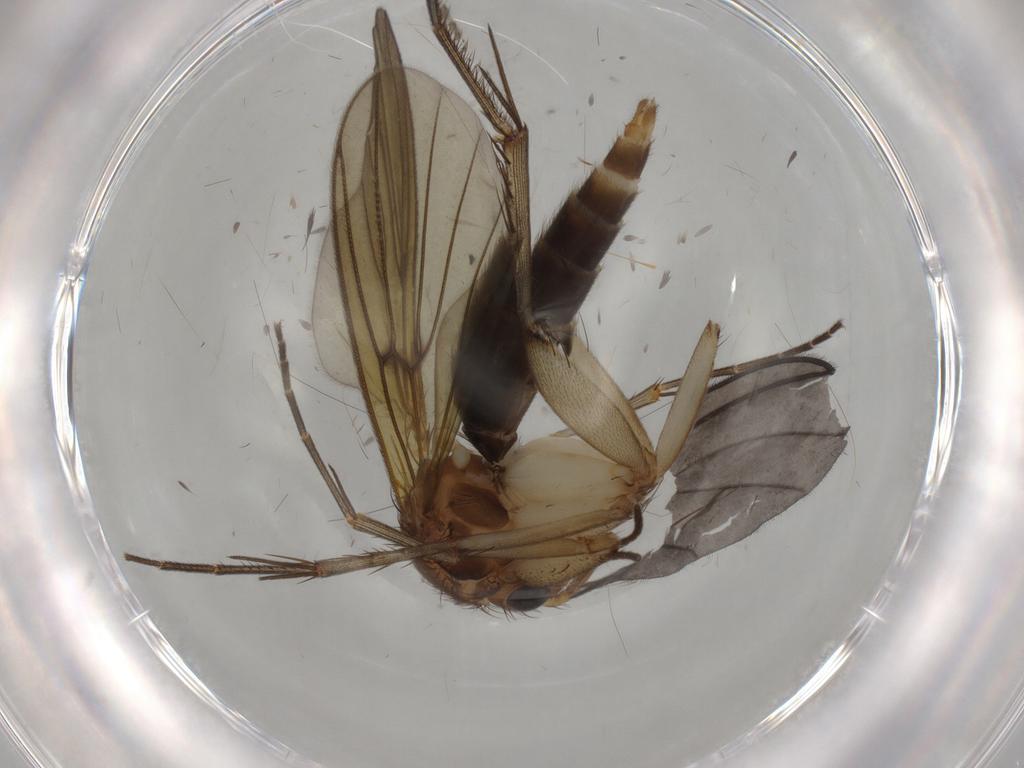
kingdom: Animalia
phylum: Arthropoda
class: Insecta
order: Diptera
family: Mycetophilidae
